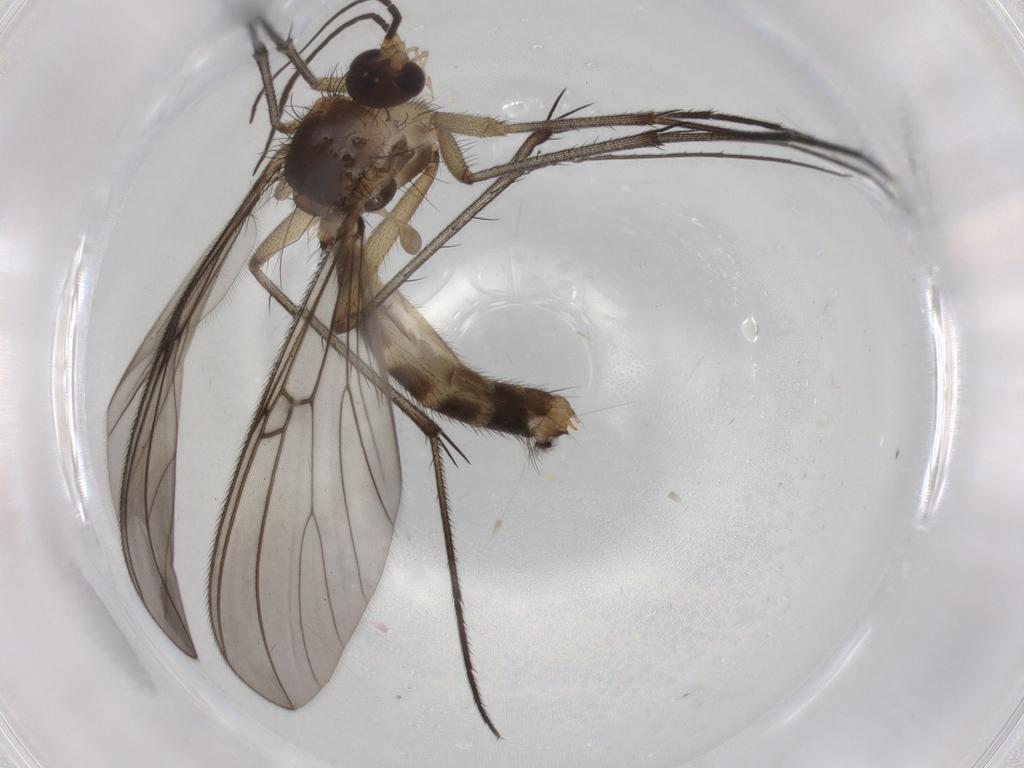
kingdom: Animalia
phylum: Arthropoda
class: Insecta
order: Diptera
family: Mycetophilidae
